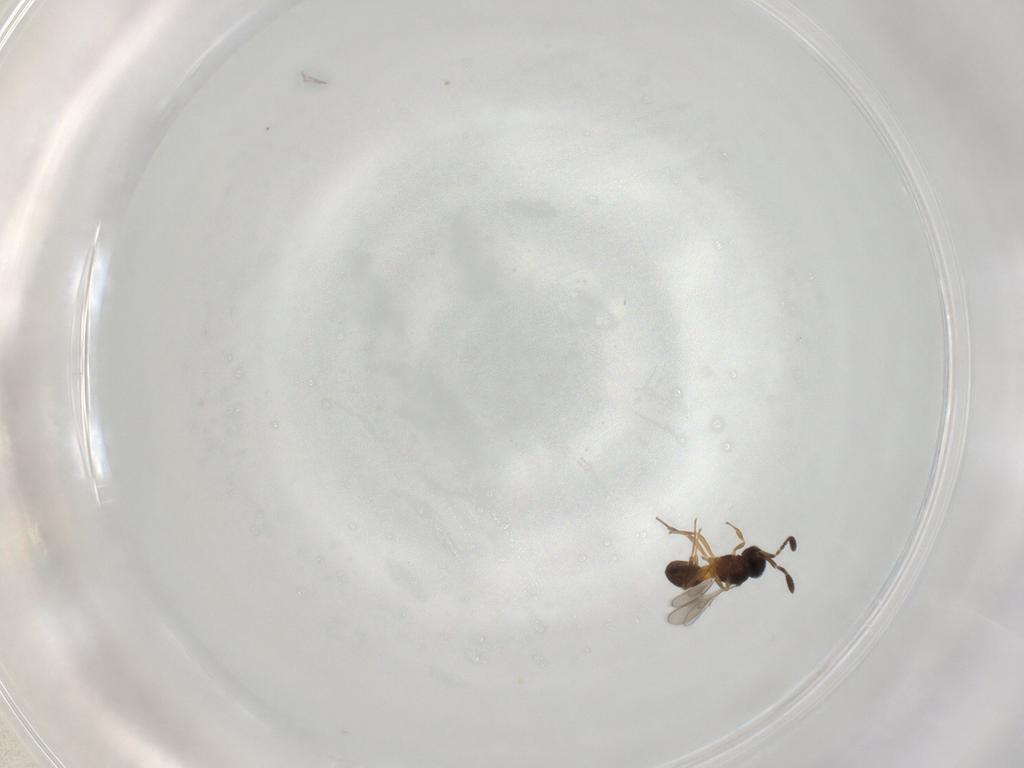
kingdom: Animalia
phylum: Arthropoda
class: Insecta
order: Hymenoptera
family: Scelionidae
